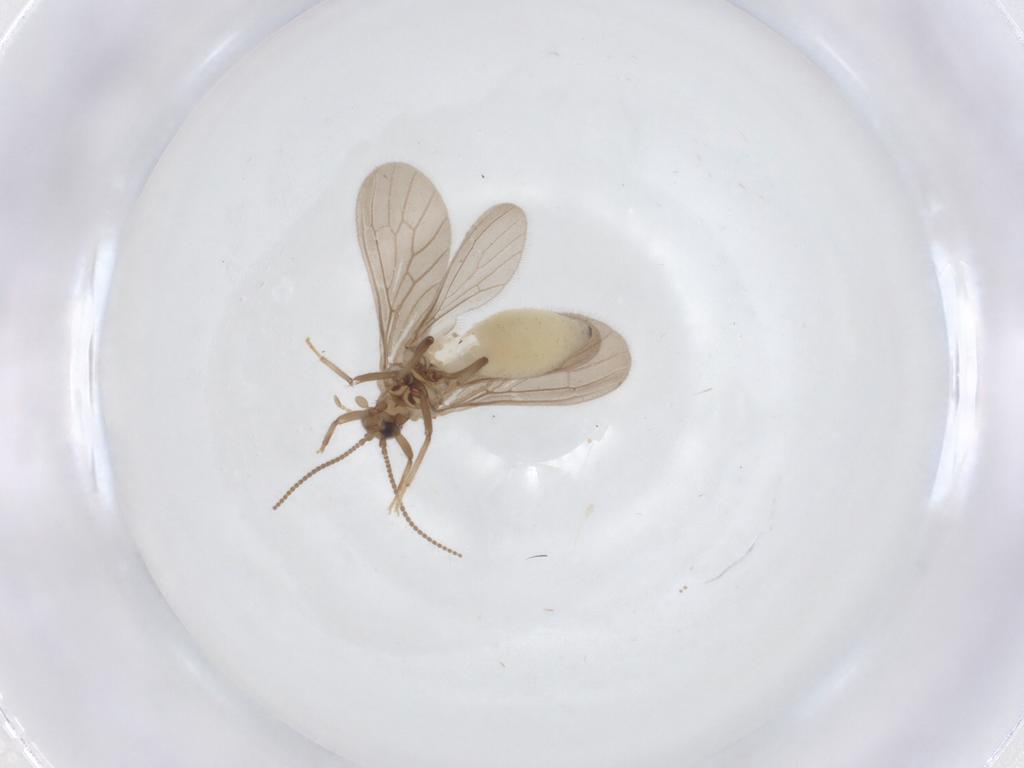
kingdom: Animalia
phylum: Arthropoda
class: Insecta
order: Neuroptera
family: Coniopterygidae
